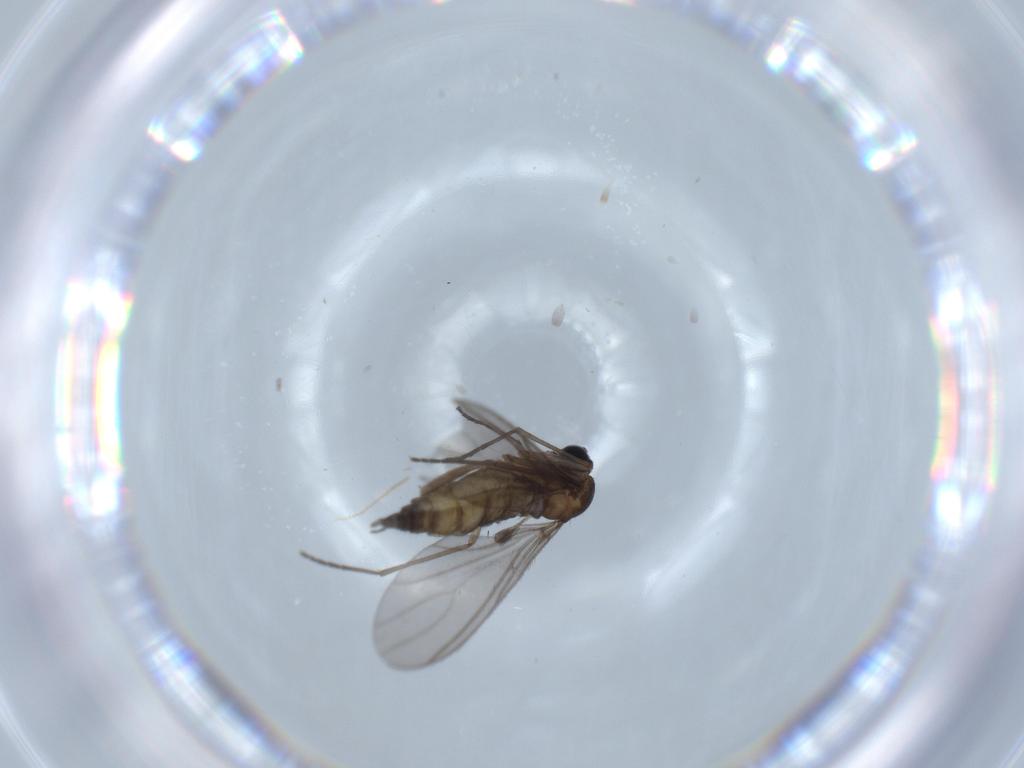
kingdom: Animalia
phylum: Arthropoda
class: Insecta
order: Diptera
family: Sciaridae
